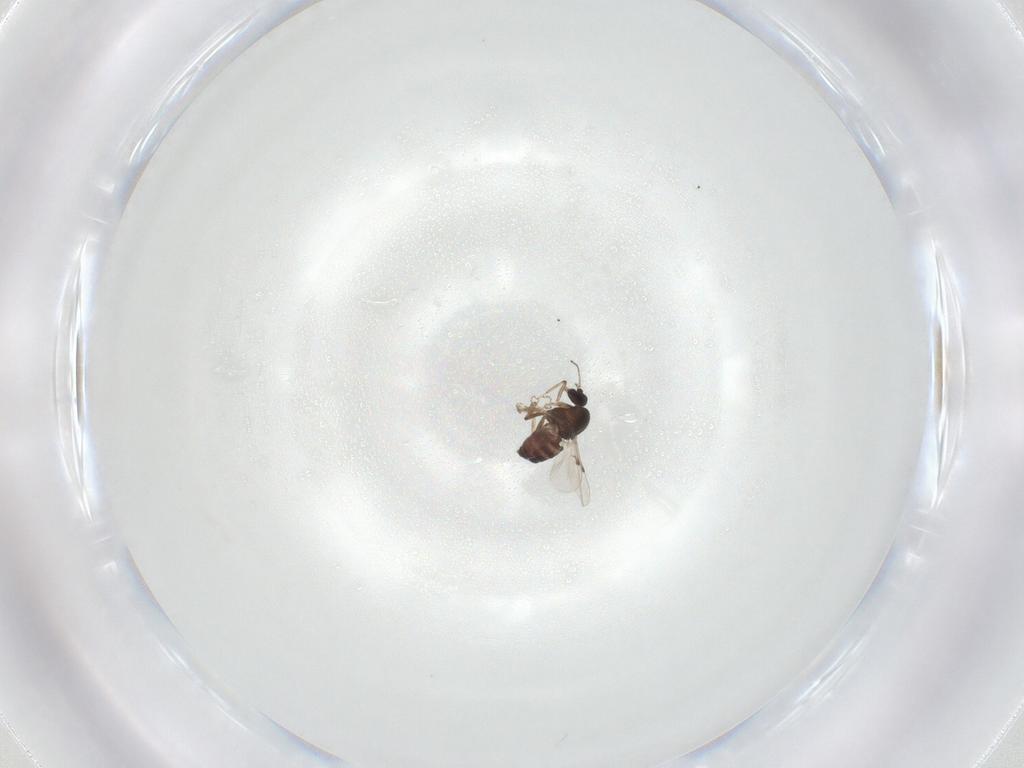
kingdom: Animalia
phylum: Arthropoda
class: Insecta
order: Diptera
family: Ceratopogonidae
